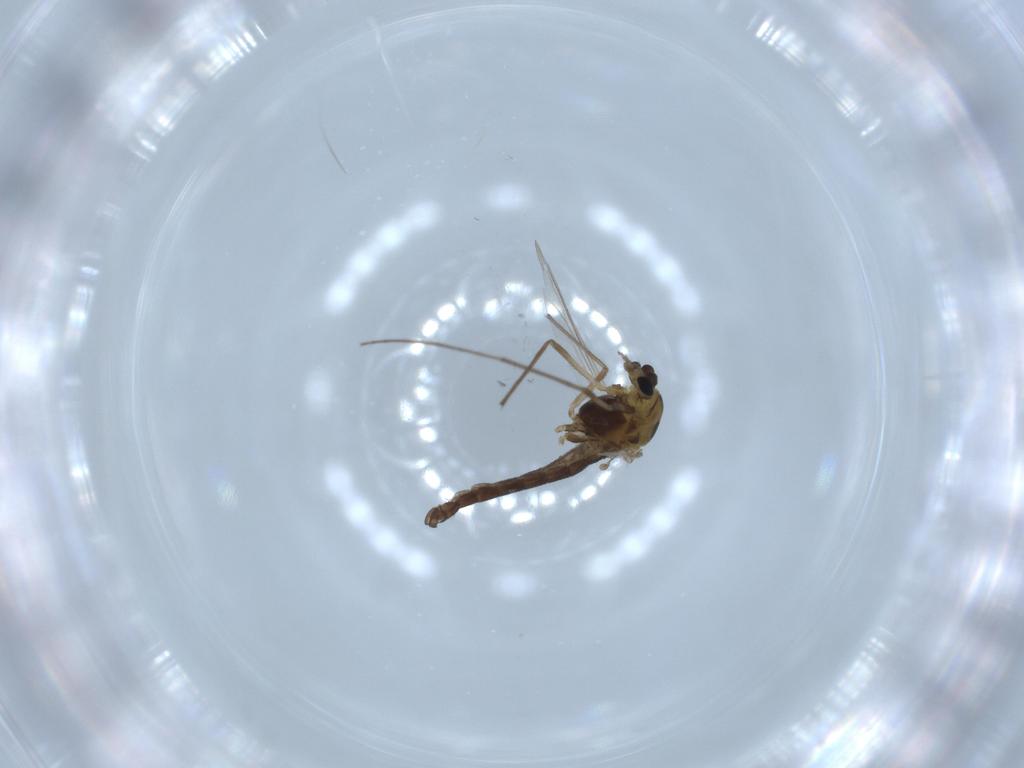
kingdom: Animalia
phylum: Arthropoda
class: Insecta
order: Diptera
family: Chironomidae
